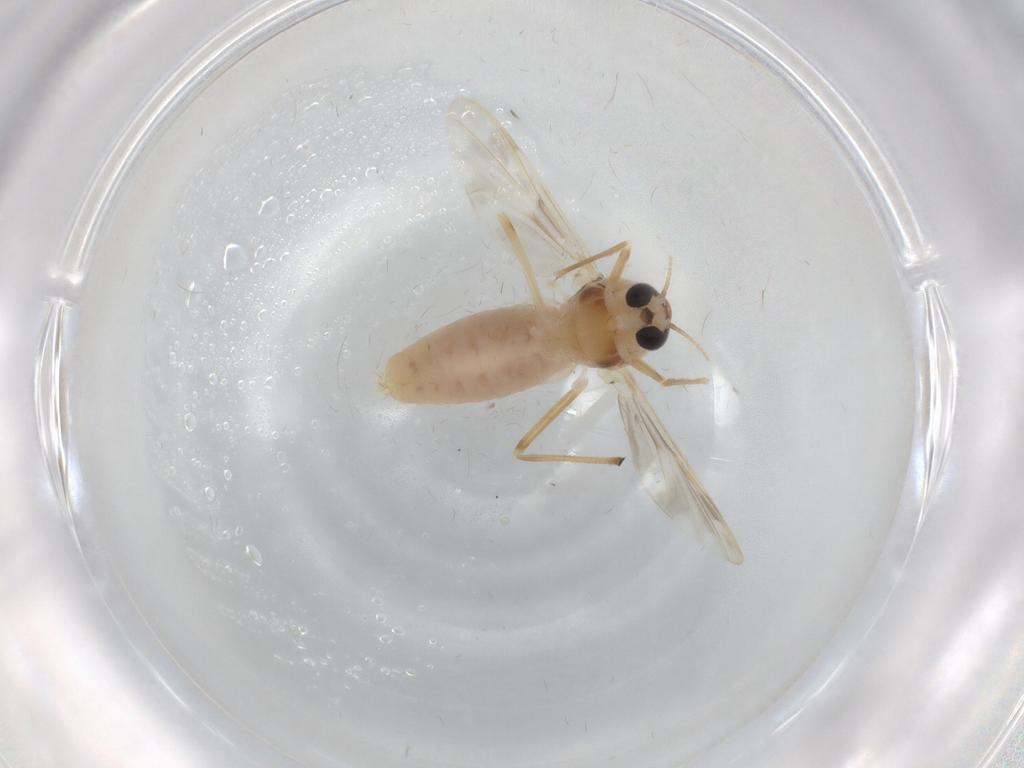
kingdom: Animalia
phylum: Arthropoda
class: Insecta
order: Diptera
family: Chironomidae
